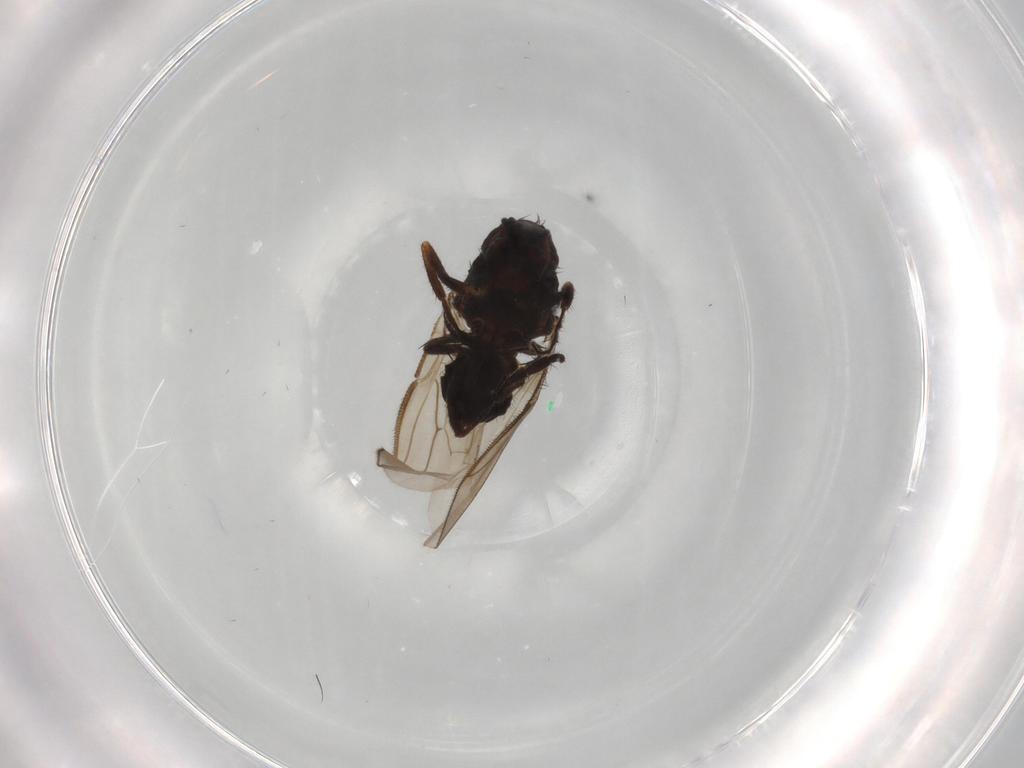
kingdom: Animalia
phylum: Arthropoda
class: Insecta
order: Diptera
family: Sphaeroceridae
